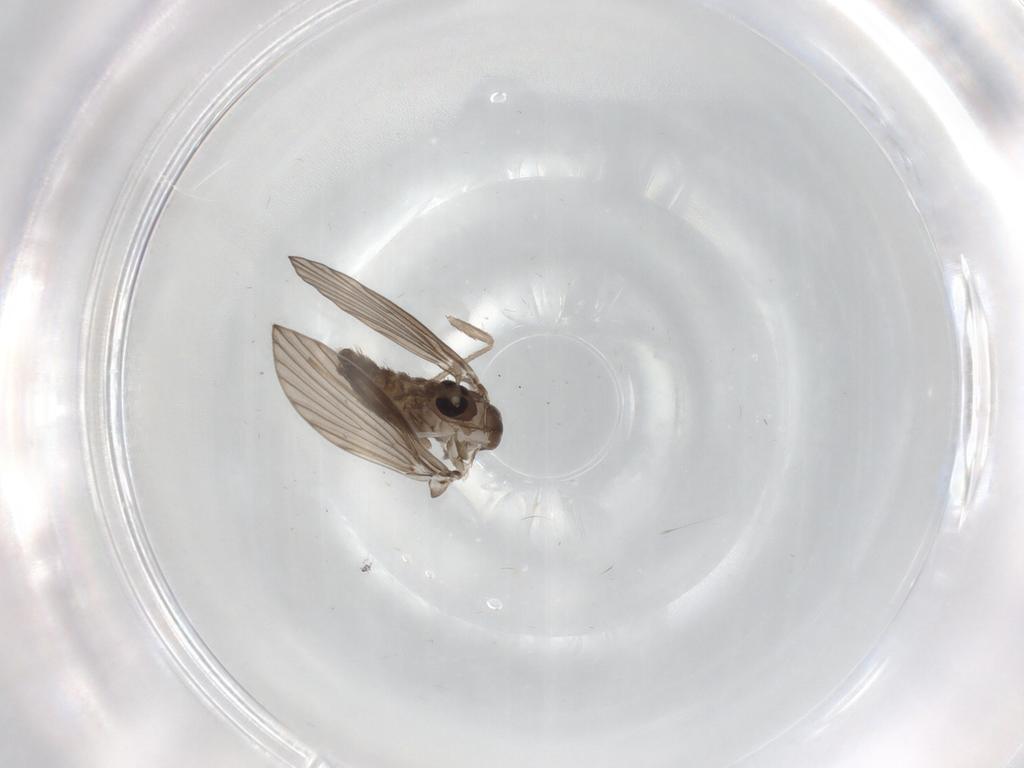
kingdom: Animalia
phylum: Arthropoda
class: Insecta
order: Diptera
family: Psychodidae
